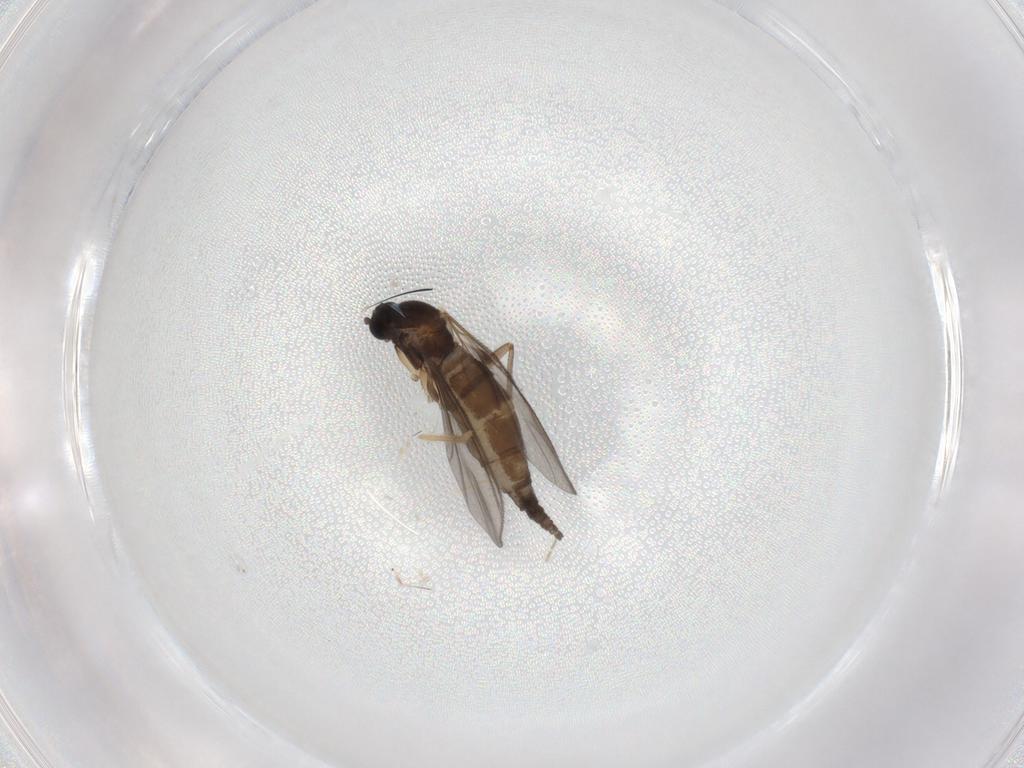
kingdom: Animalia
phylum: Arthropoda
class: Insecta
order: Diptera
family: Sciaridae
